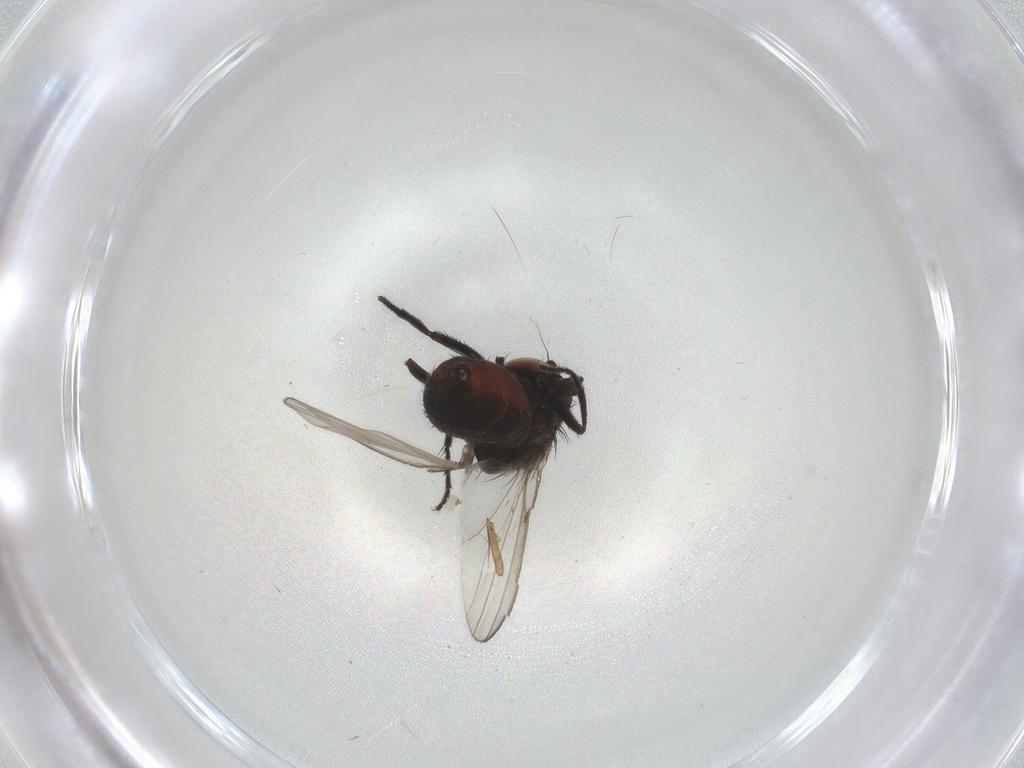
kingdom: Animalia
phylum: Arthropoda
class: Insecta
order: Diptera
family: Milichiidae
